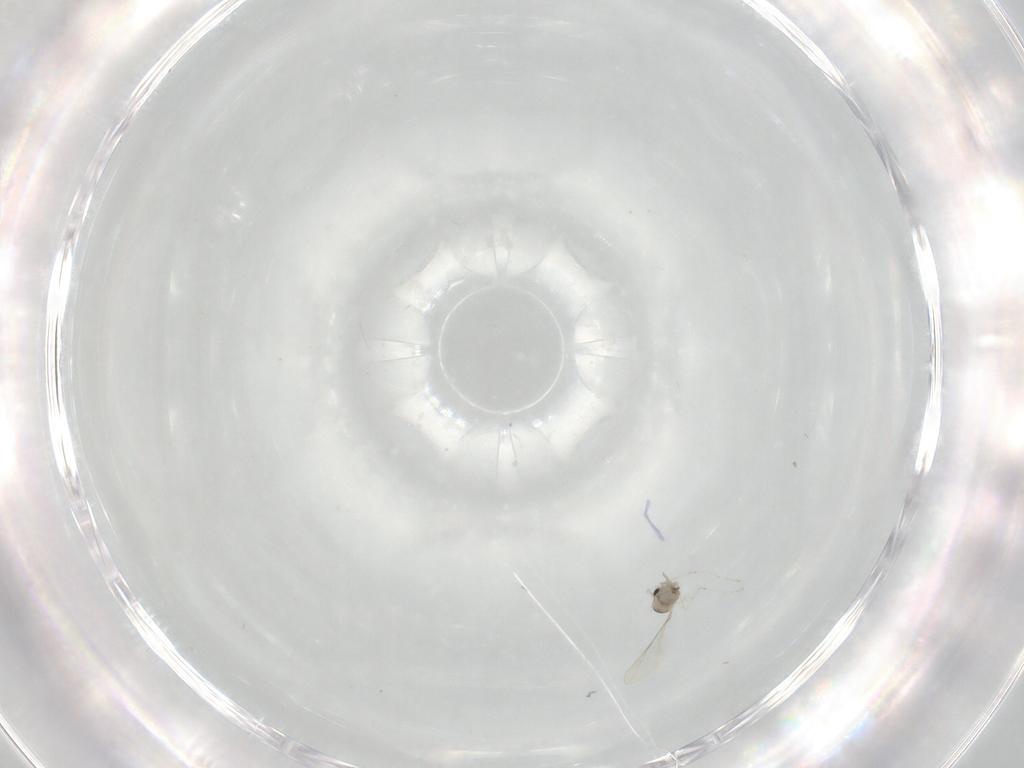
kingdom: Animalia
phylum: Arthropoda
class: Insecta
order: Diptera
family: Cecidomyiidae
